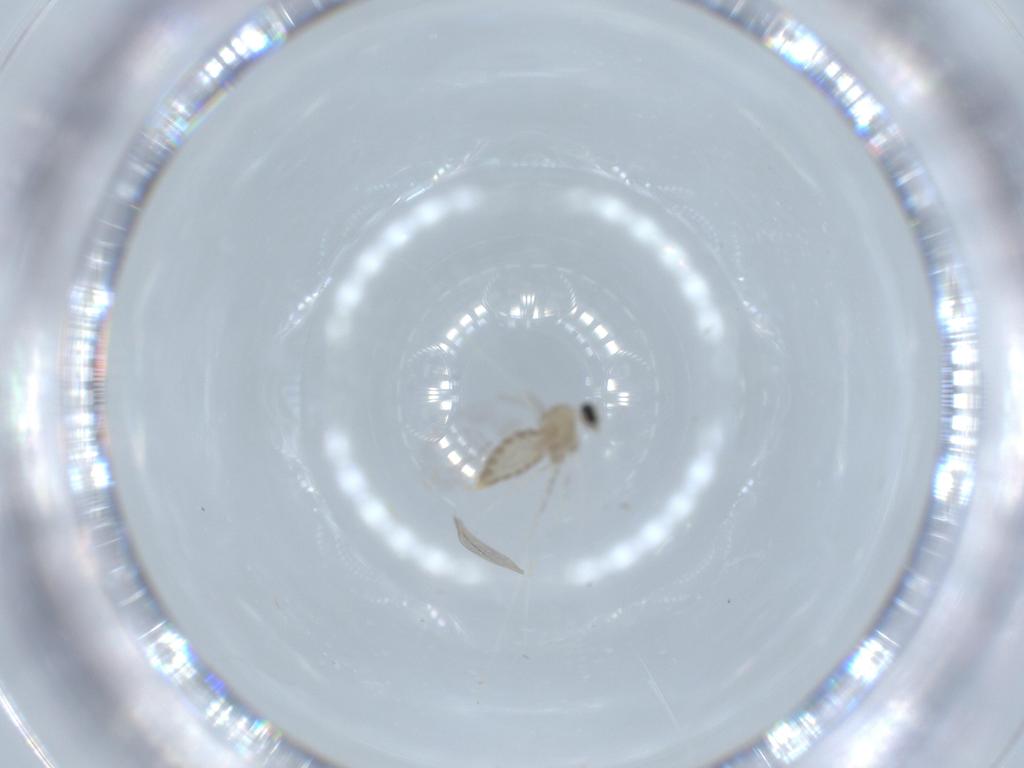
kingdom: Animalia
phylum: Arthropoda
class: Insecta
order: Diptera
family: Cecidomyiidae
